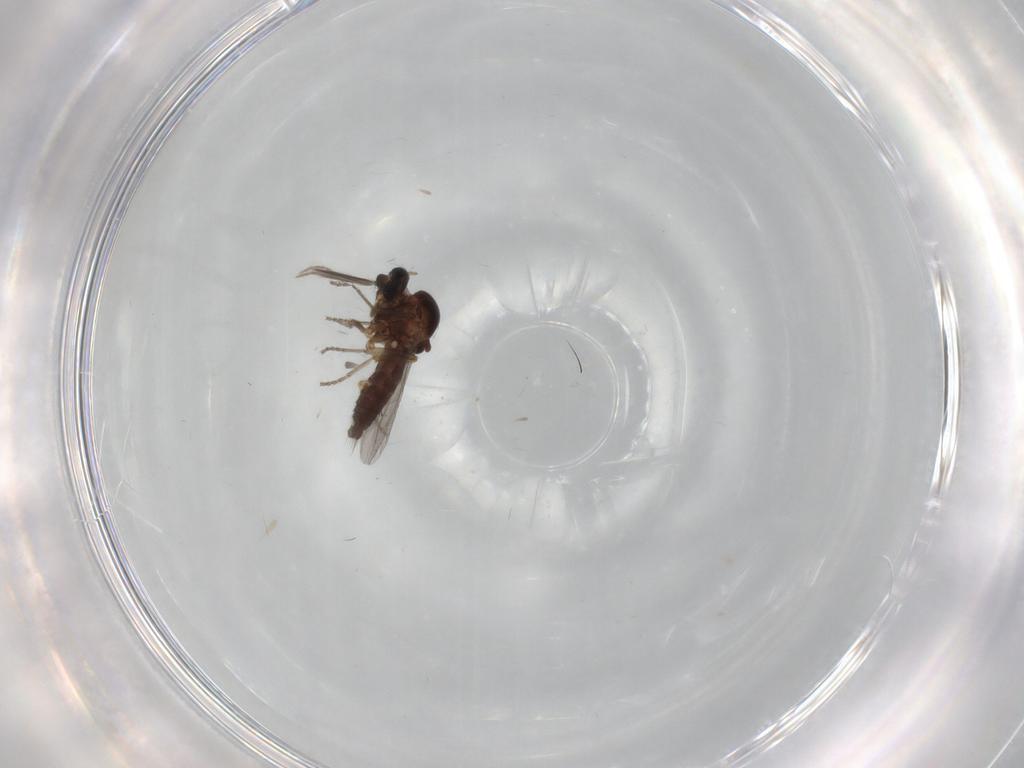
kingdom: Animalia
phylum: Arthropoda
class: Insecta
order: Diptera
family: Ceratopogonidae
